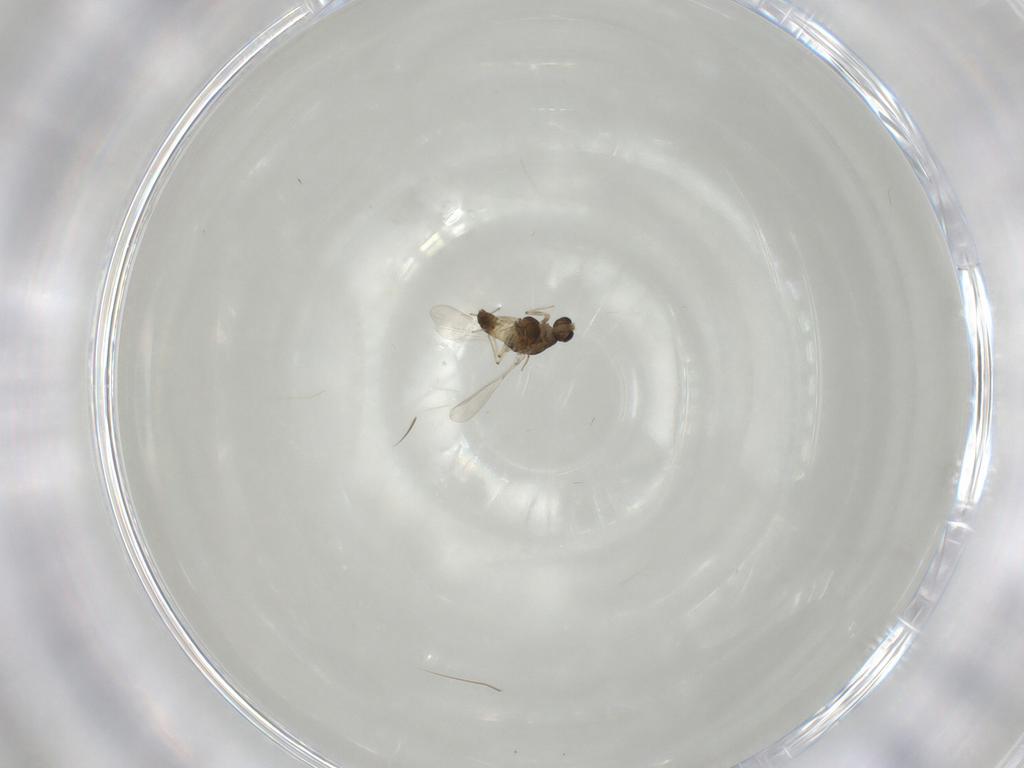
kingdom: Animalia
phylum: Arthropoda
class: Insecta
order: Diptera
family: Chironomidae
